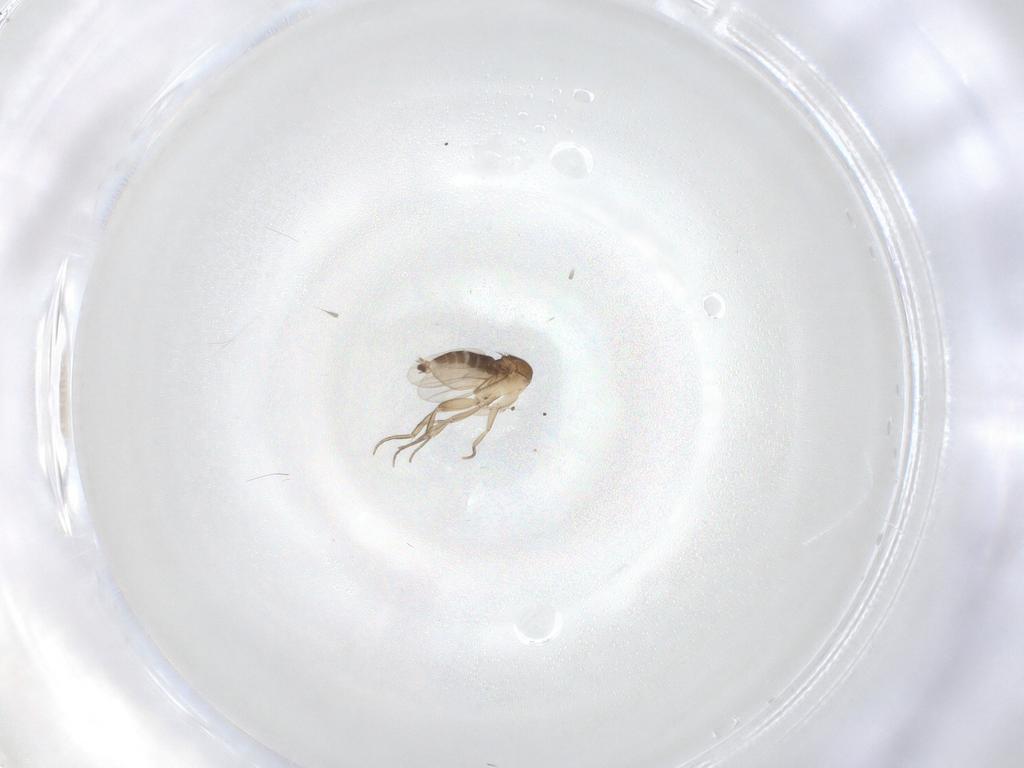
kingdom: Animalia
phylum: Arthropoda
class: Insecta
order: Diptera
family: Phoridae
